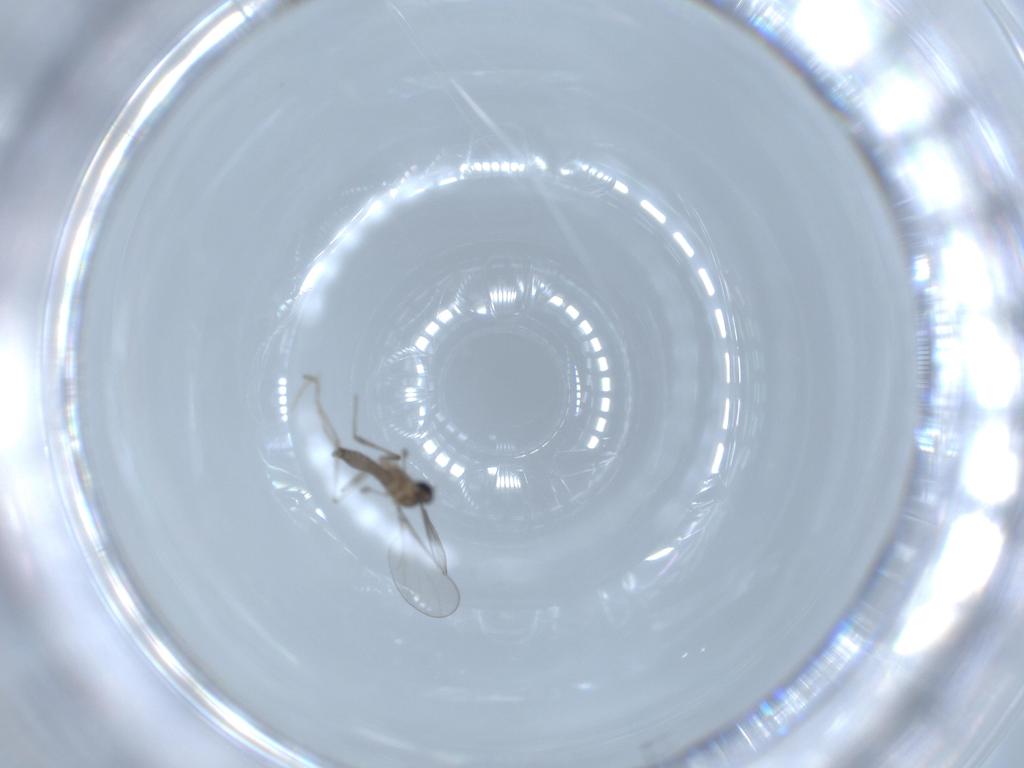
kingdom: Animalia
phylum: Arthropoda
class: Insecta
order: Diptera
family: Cecidomyiidae
